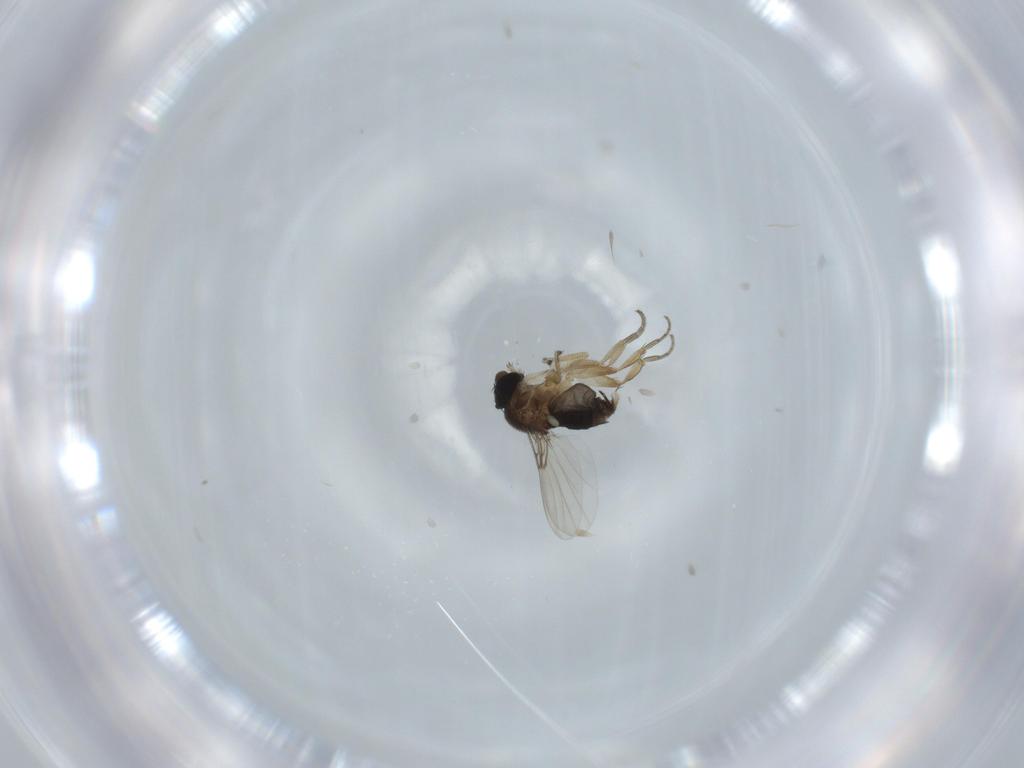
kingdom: Animalia
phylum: Arthropoda
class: Insecta
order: Diptera
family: Phoridae
